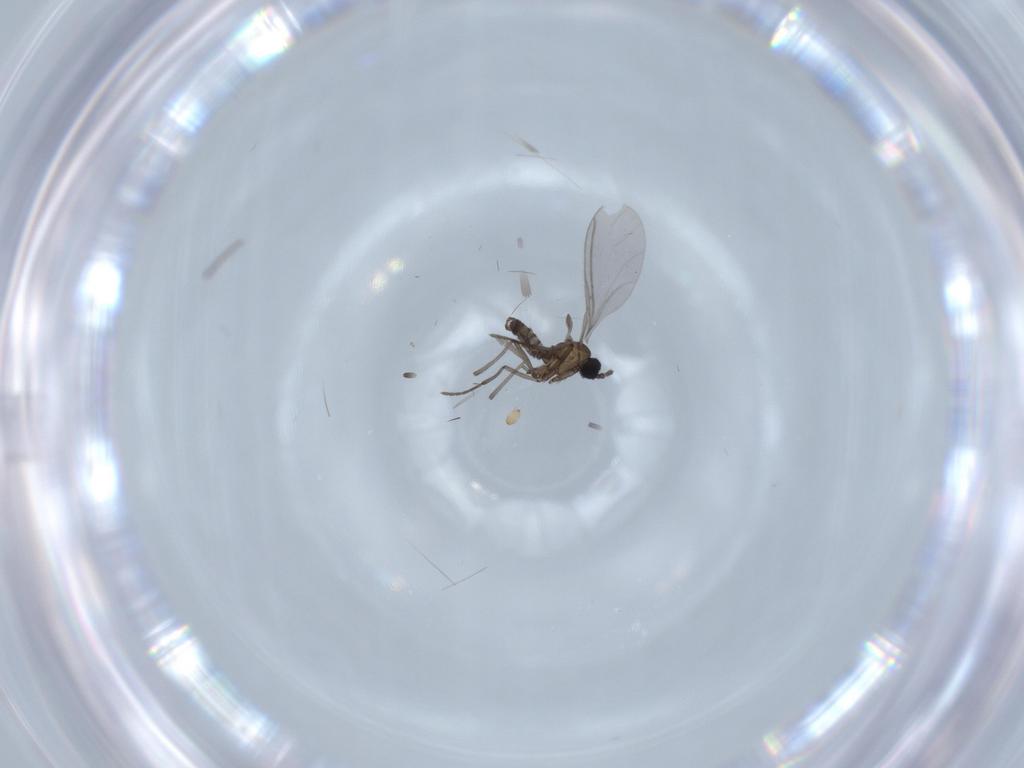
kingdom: Animalia
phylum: Arthropoda
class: Insecta
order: Diptera
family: Sciaridae
